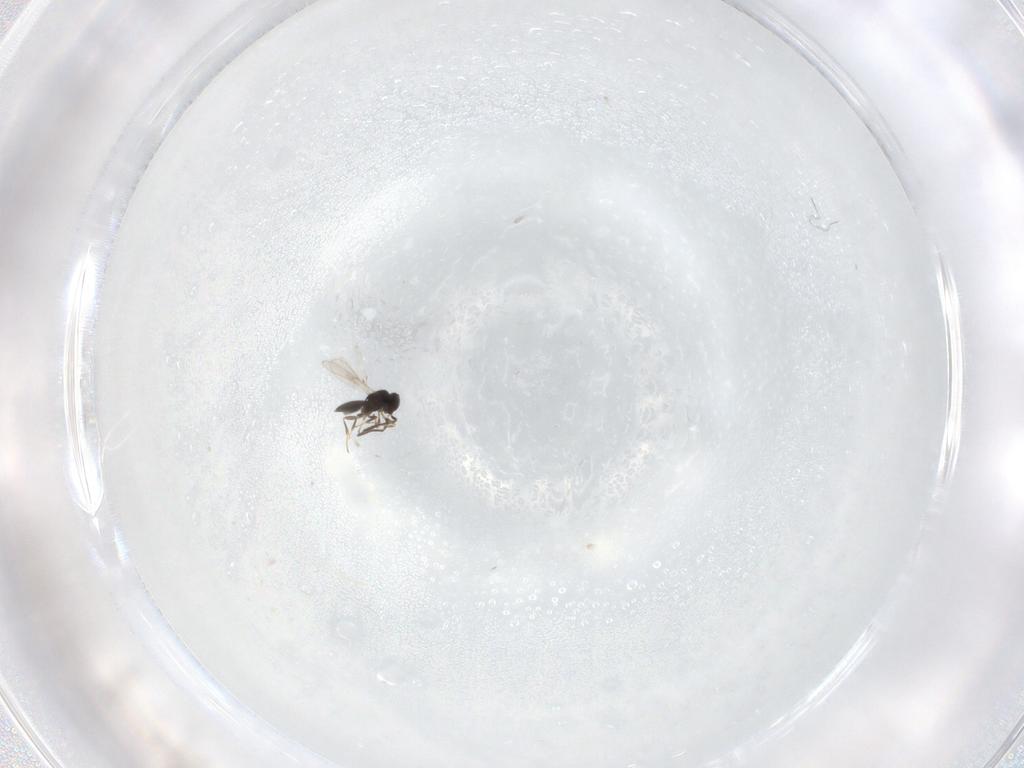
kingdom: Animalia
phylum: Arthropoda
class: Insecta
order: Hymenoptera
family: Scelionidae
